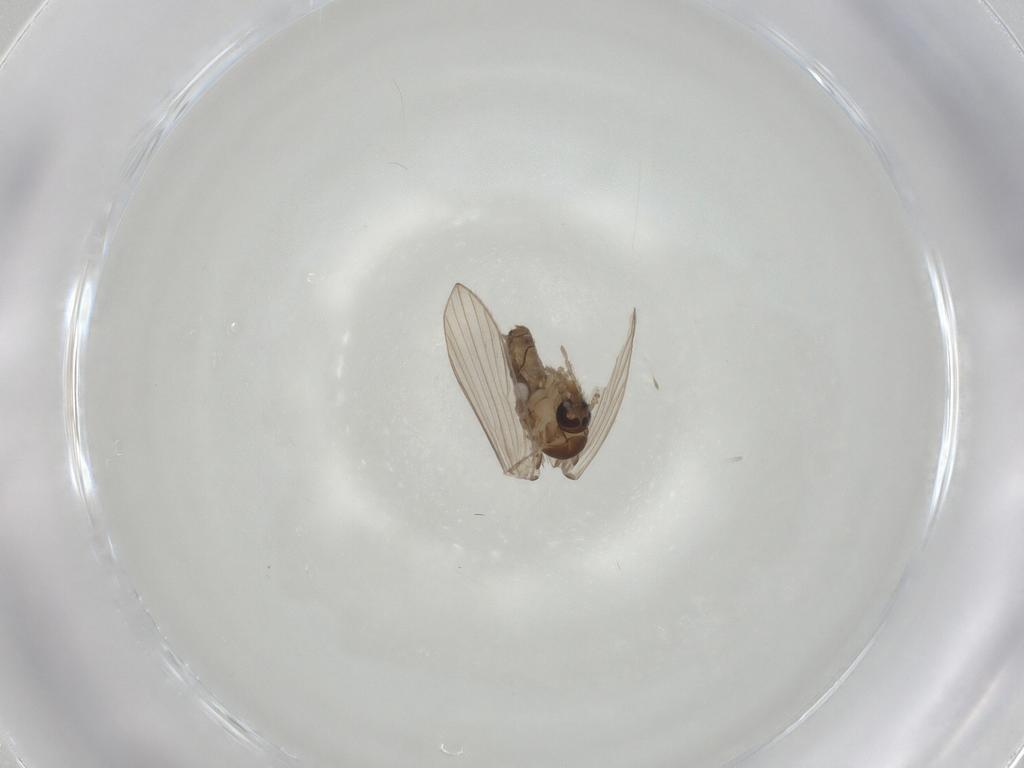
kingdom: Animalia
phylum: Arthropoda
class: Insecta
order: Diptera
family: Psychodidae
